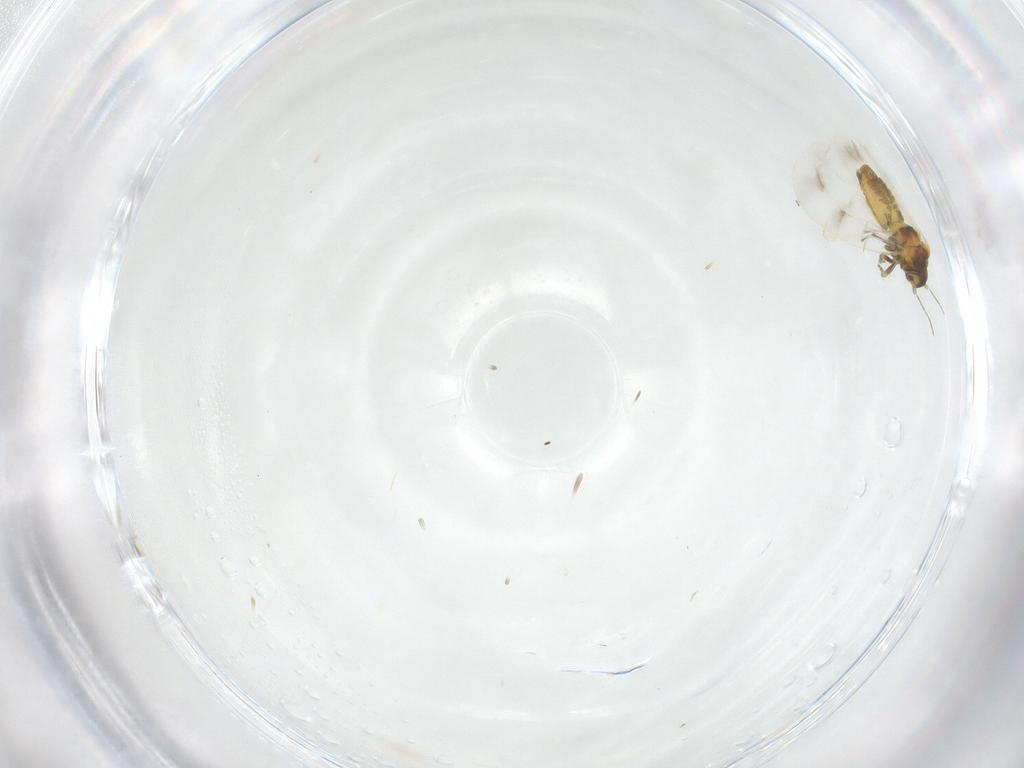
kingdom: Animalia
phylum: Arthropoda
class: Insecta
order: Hemiptera
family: Aleyrodidae
